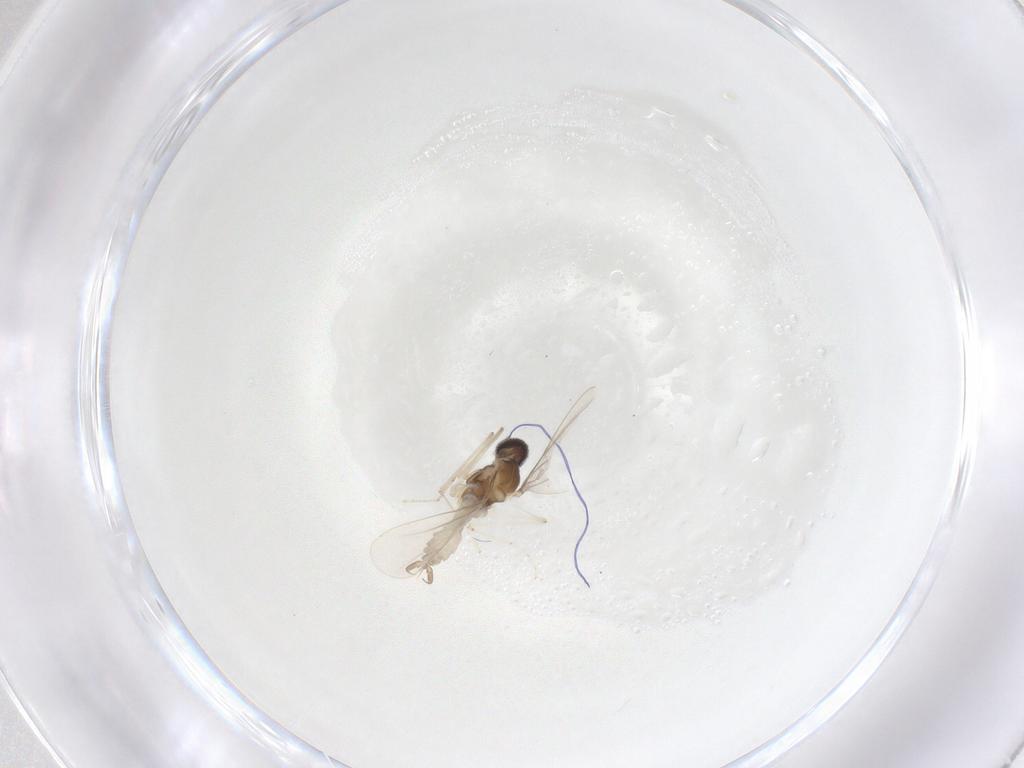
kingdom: Animalia
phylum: Arthropoda
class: Insecta
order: Diptera
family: Cecidomyiidae
